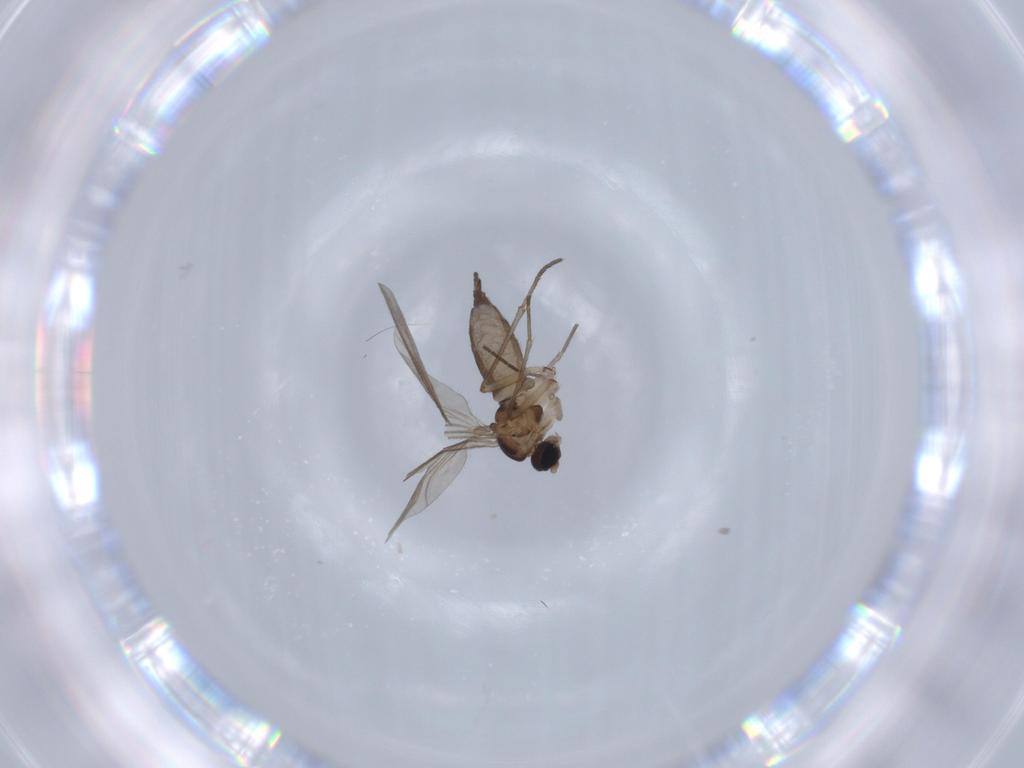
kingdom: Animalia
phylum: Arthropoda
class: Insecta
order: Diptera
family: Sciaridae
